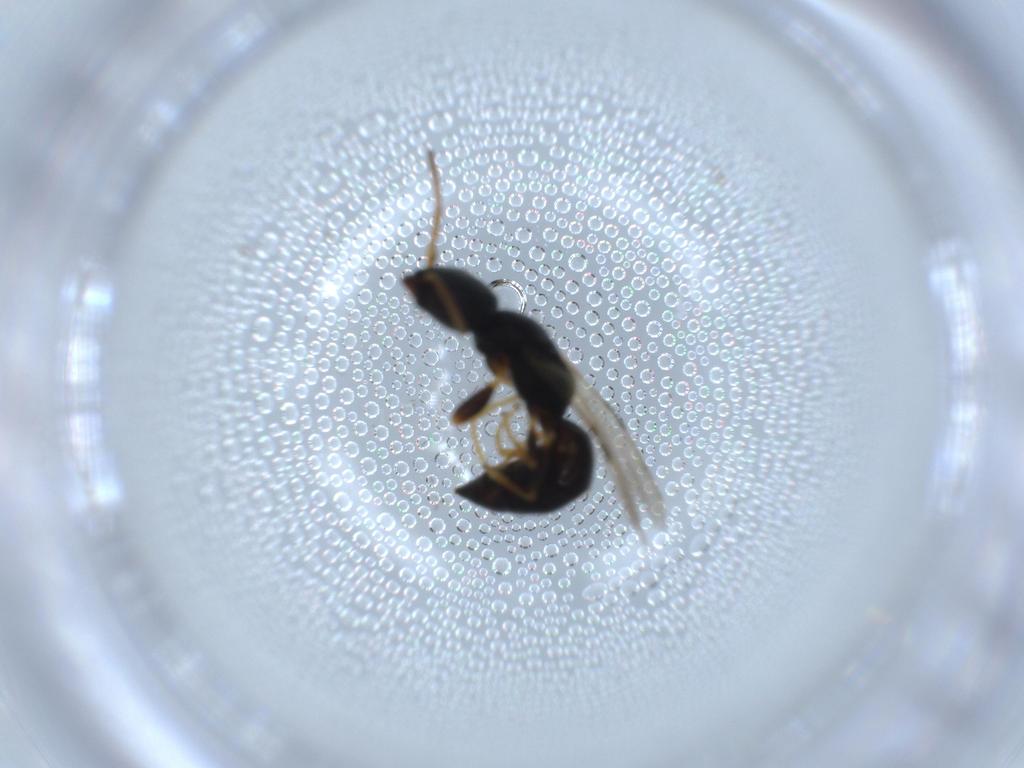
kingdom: Animalia
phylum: Arthropoda
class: Insecta
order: Hymenoptera
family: Bethylidae
